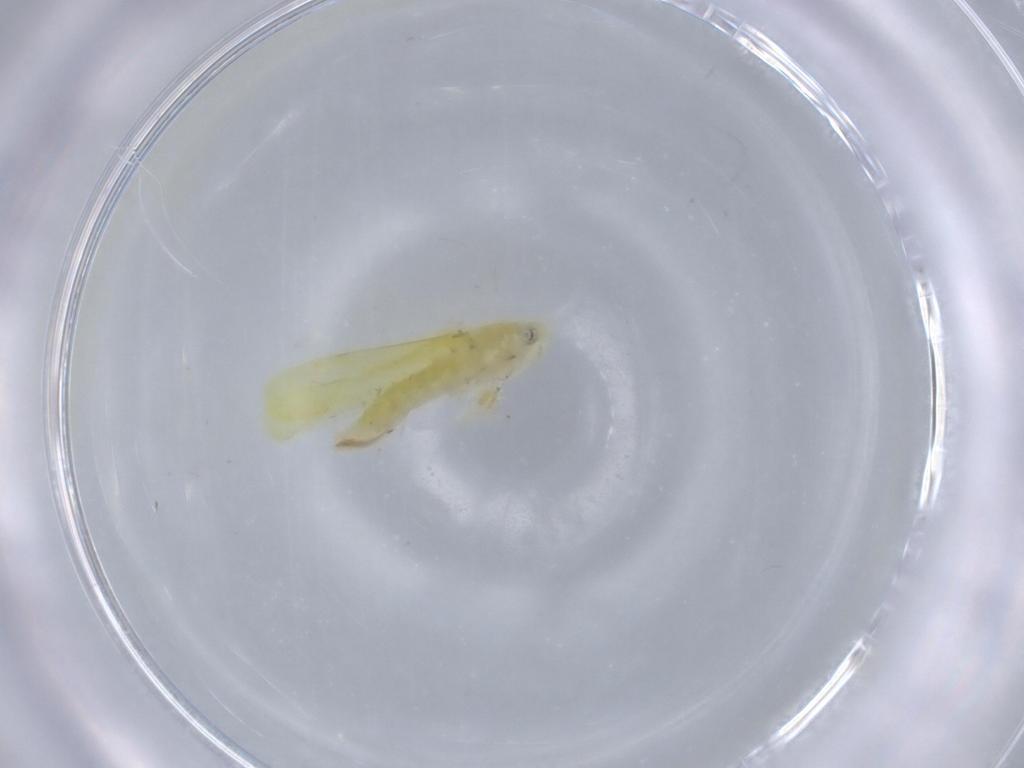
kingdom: Animalia
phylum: Arthropoda
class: Insecta
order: Hemiptera
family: Cicadellidae
